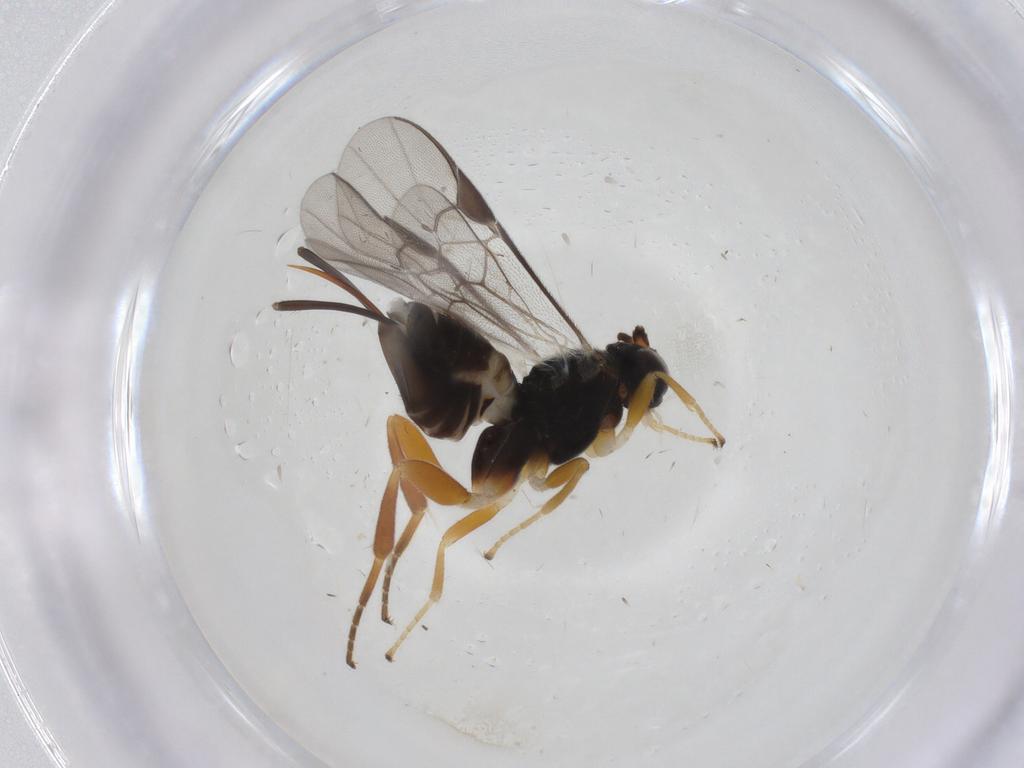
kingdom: Animalia
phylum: Arthropoda
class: Insecta
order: Hymenoptera
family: Braconidae
